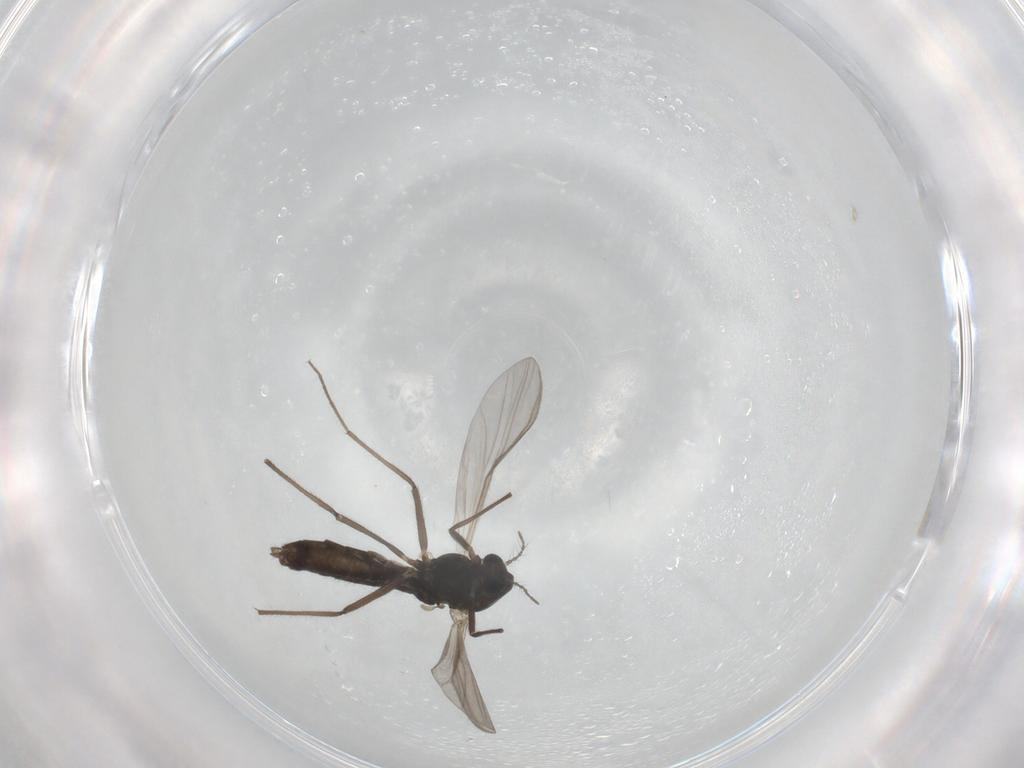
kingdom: Animalia
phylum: Arthropoda
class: Insecta
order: Diptera
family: Chironomidae
